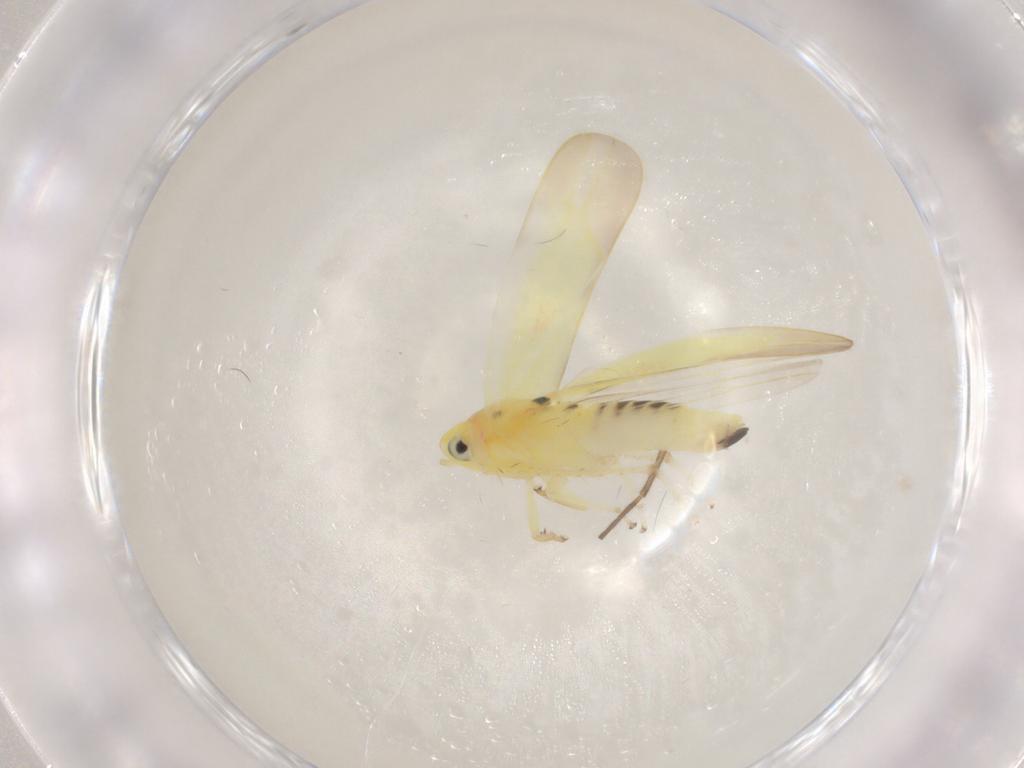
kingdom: Animalia
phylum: Arthropoda
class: Insecta
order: Hemiptera
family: Cicadellidae
